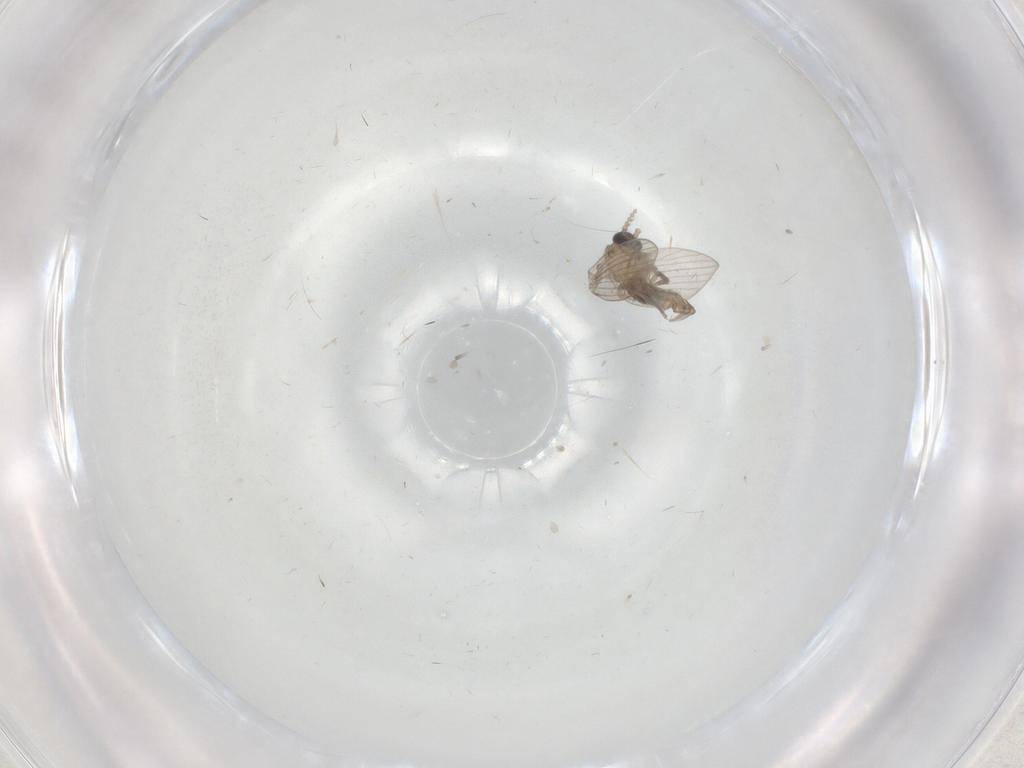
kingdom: Animalia
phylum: Arthropoda
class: Insecta
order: Diptera
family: Psychodidae
